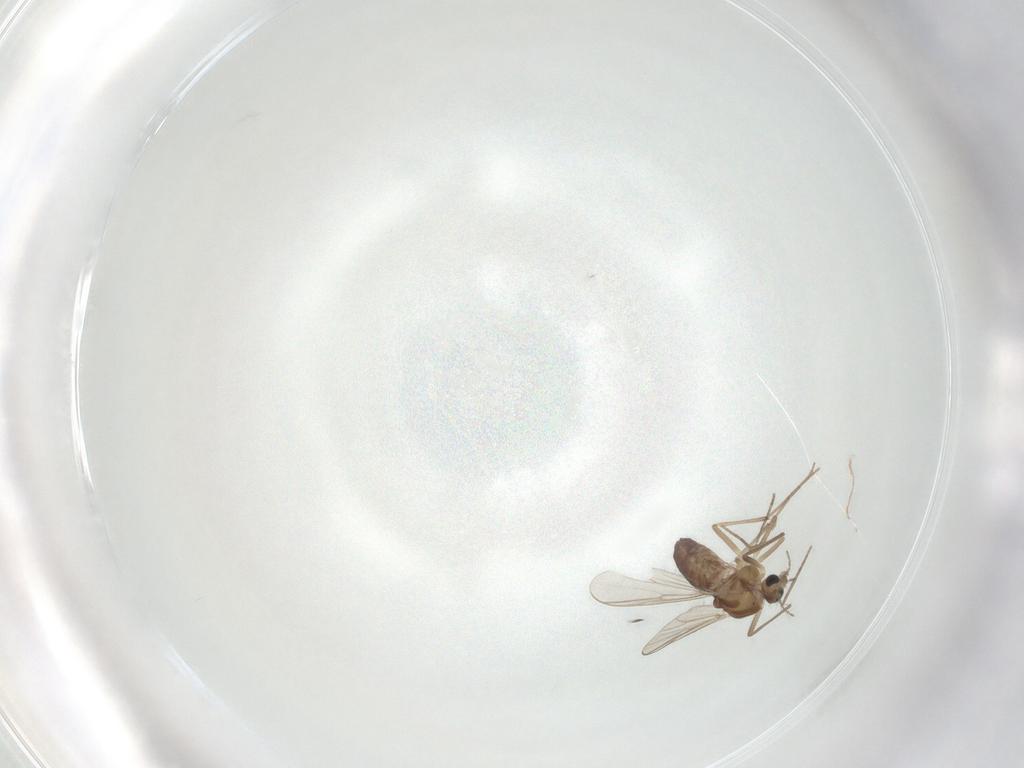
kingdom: Animalia
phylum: Arthropoda
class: Insecta
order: Diptera
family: Chironomidae
